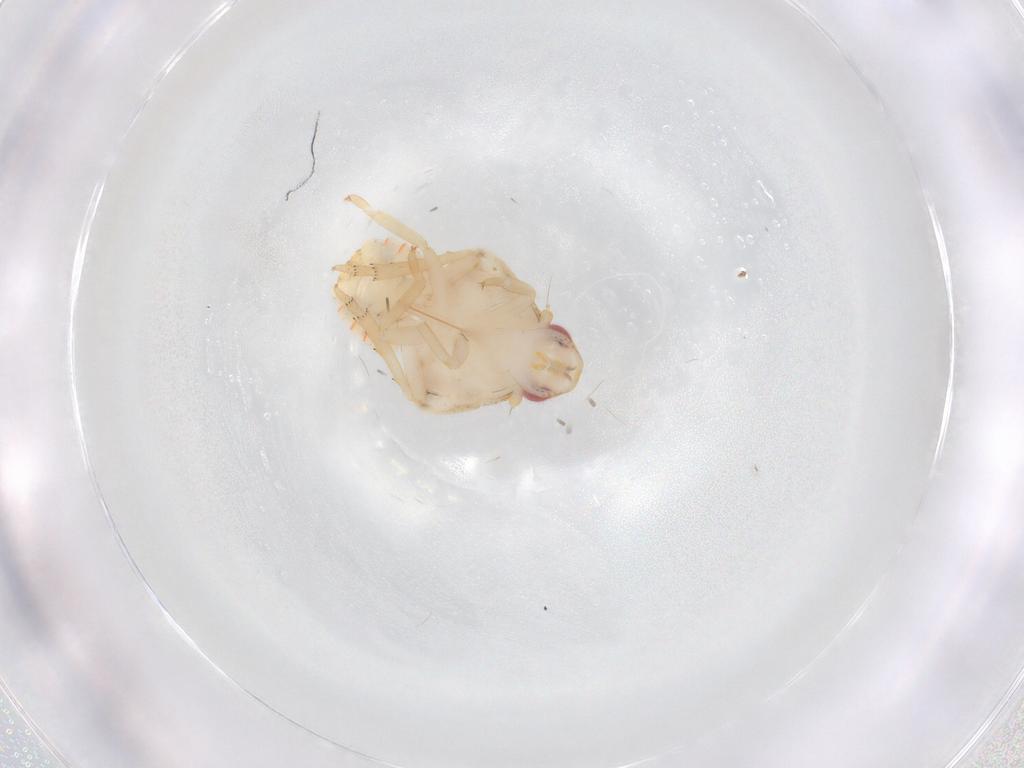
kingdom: Animalia
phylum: Arthropoda
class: Insecta
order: Hemiptera
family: Flatidae
